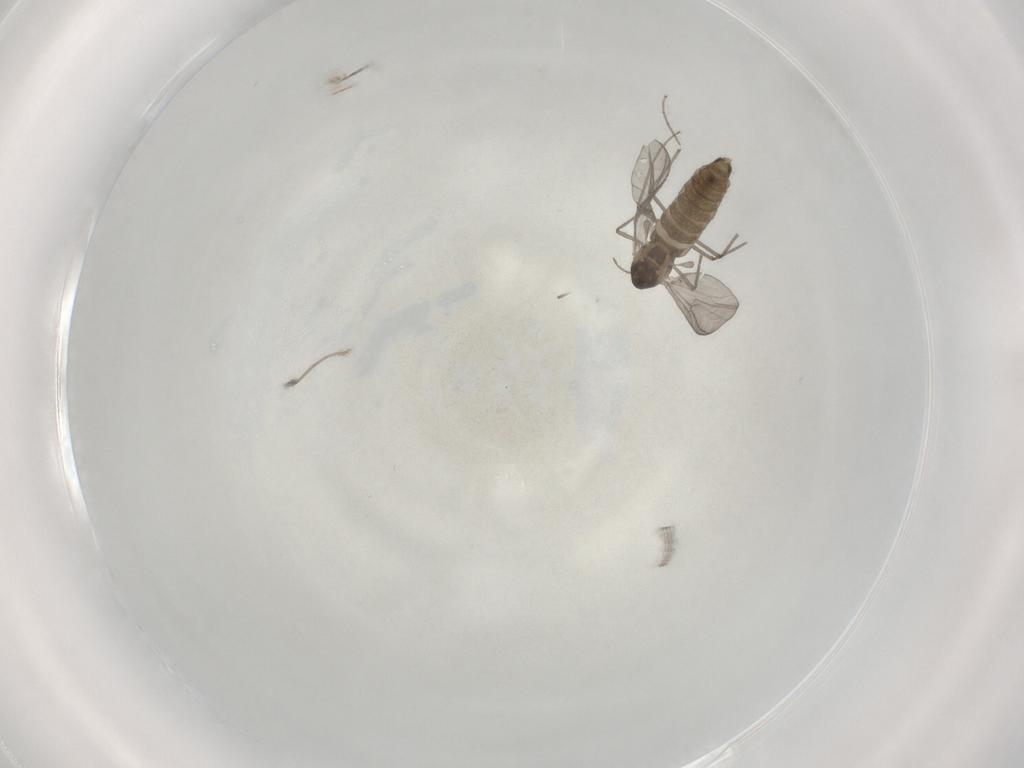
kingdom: Animalia
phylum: Arthropoda
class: Insecta
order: Diptera
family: Chironomidae
